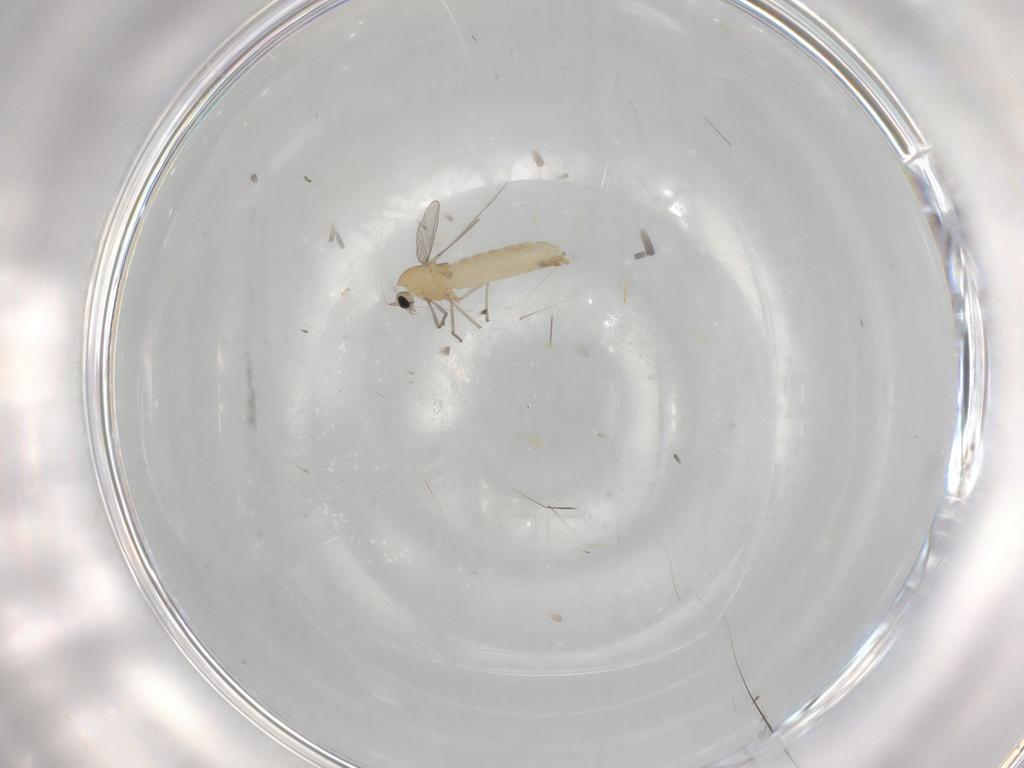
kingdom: Animalia
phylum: Arthropoda
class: Insecta
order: Diptera
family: Chironomidae
